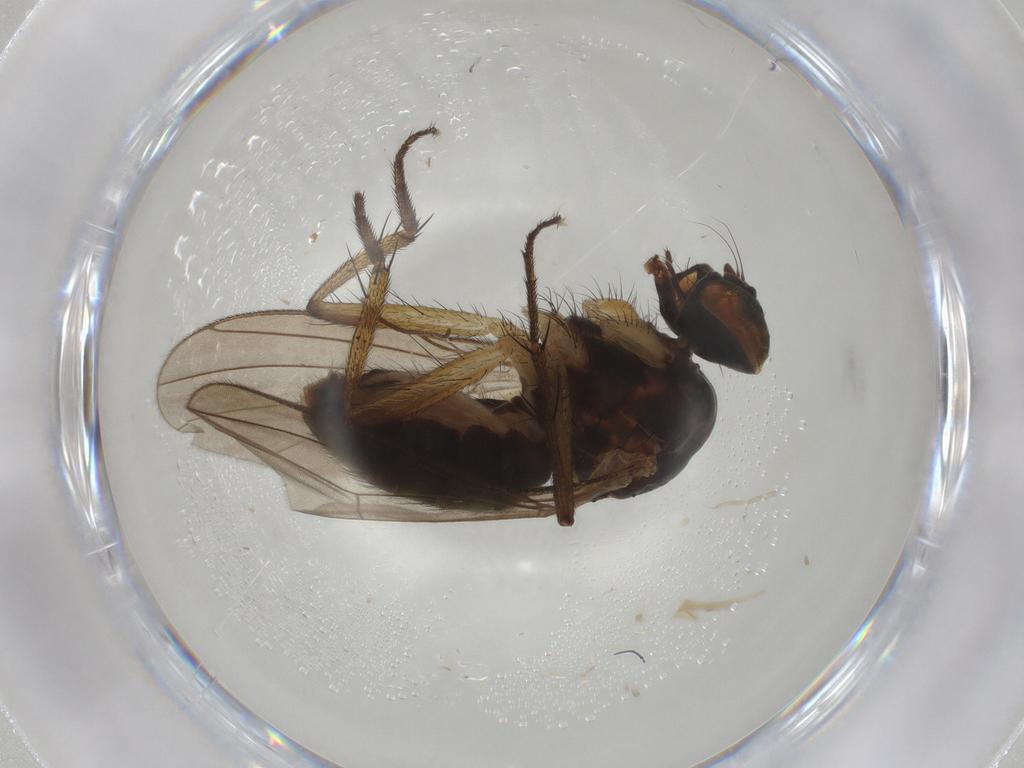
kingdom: Animalia
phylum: Arthropoda
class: Insecta
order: Diptera
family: Muscidae
